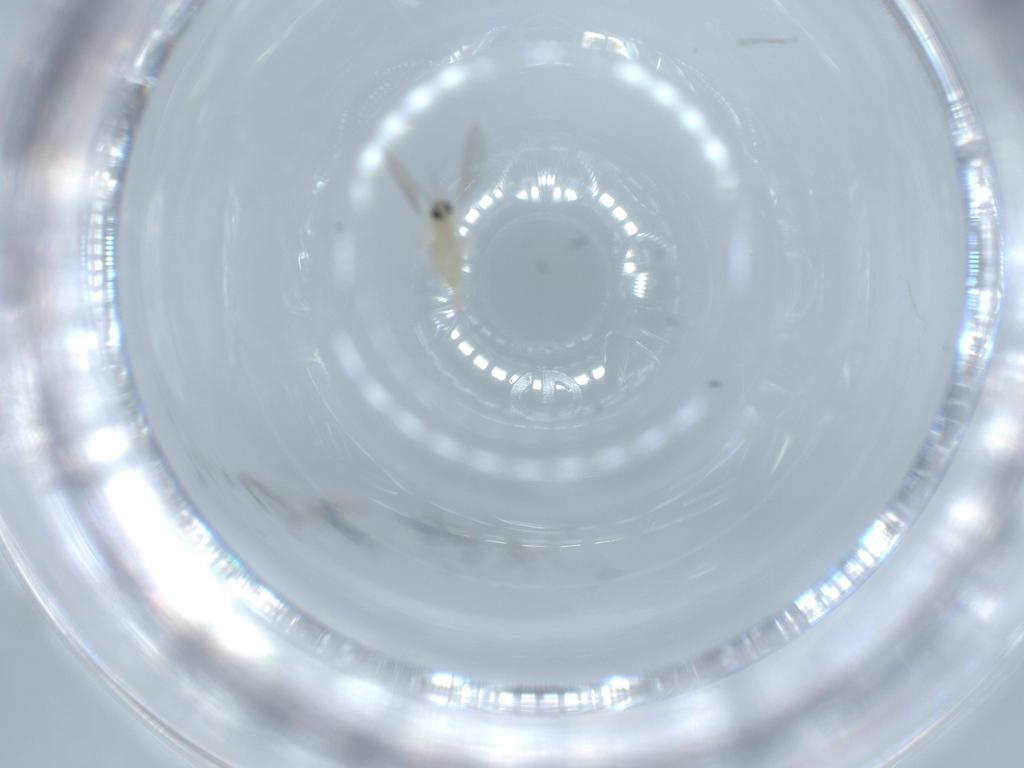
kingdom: Animalia
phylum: Arthropoda
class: Insecta
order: Diptera
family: Cecidomyiidae
